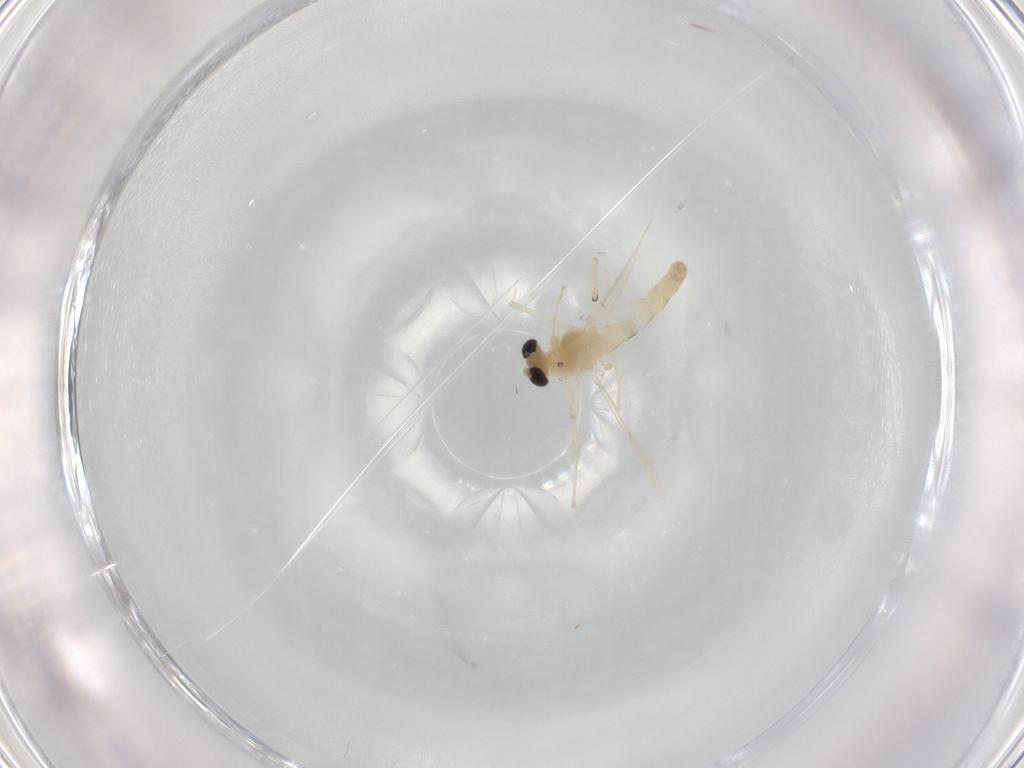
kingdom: Animalia
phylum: Arthropoda
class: Insecta
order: Diptera
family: Chironomidae
